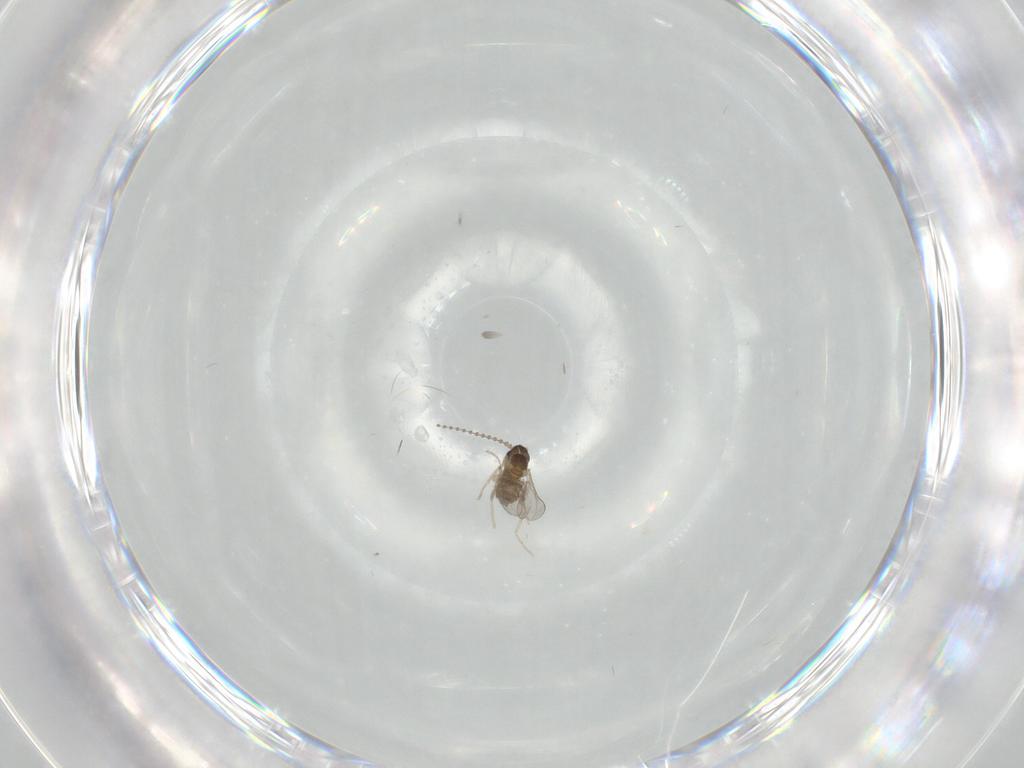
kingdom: Animalia
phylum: Arthropoda
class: Insecta
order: Diptera
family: Cecidomyiidae
